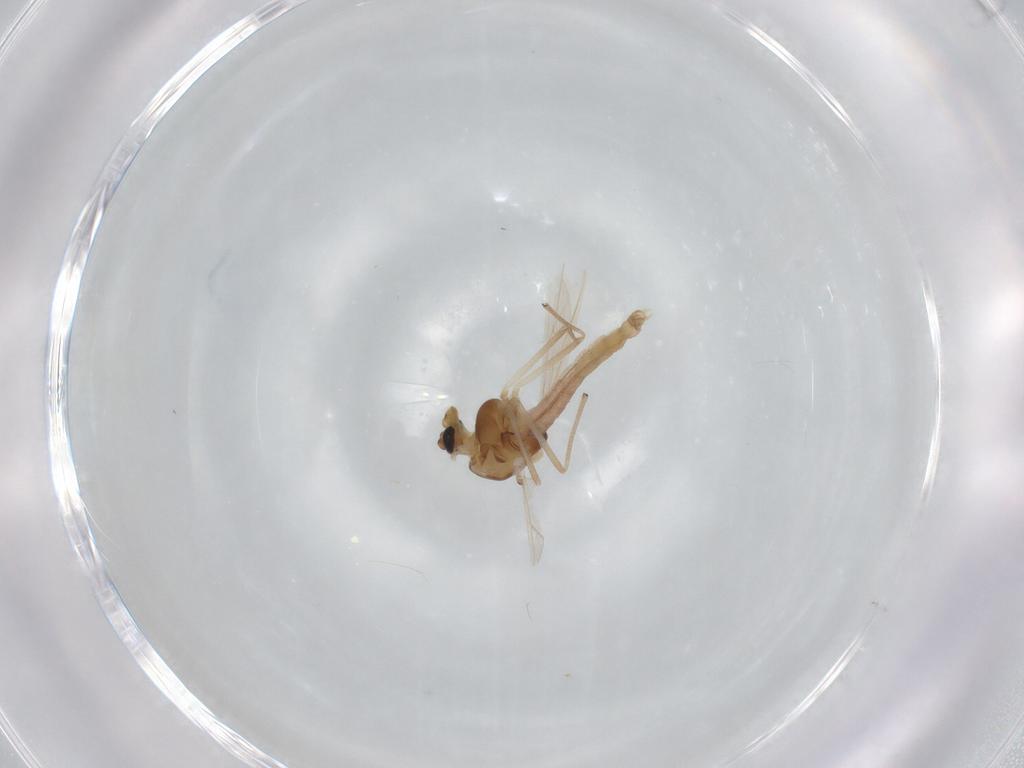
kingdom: Animalia
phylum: Arthropoda
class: Insecta
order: Diptera
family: Chironomidae
